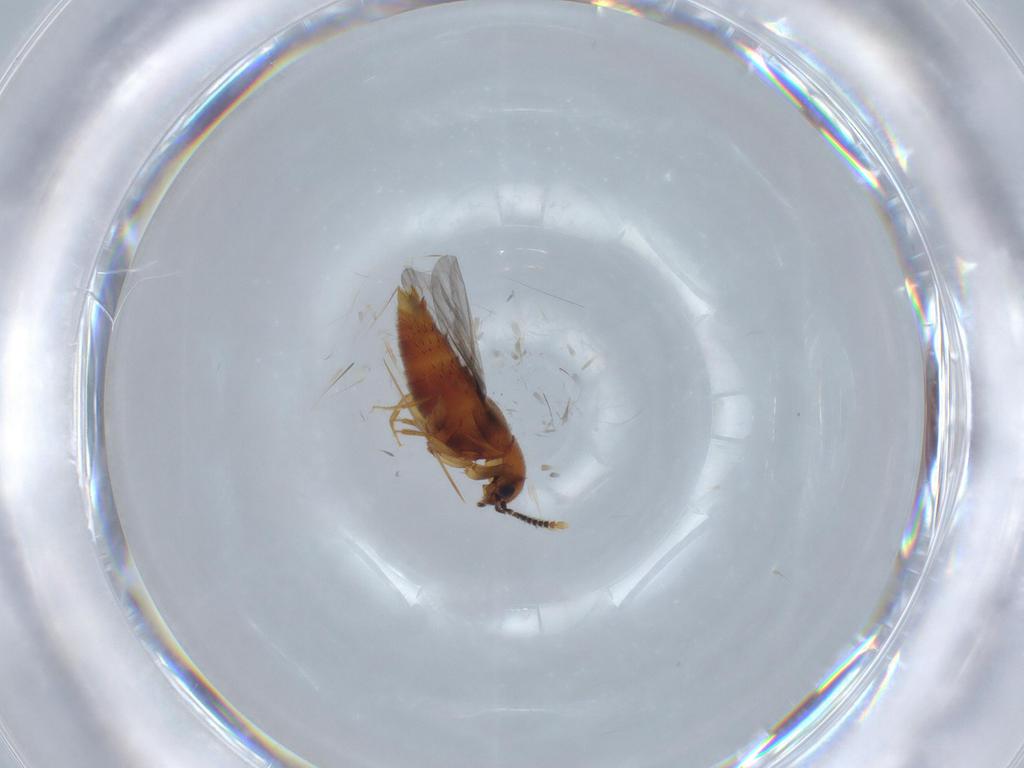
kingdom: Animalia
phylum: Arthropoda
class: Insecta
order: Coleoptera
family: Staphylinidae
